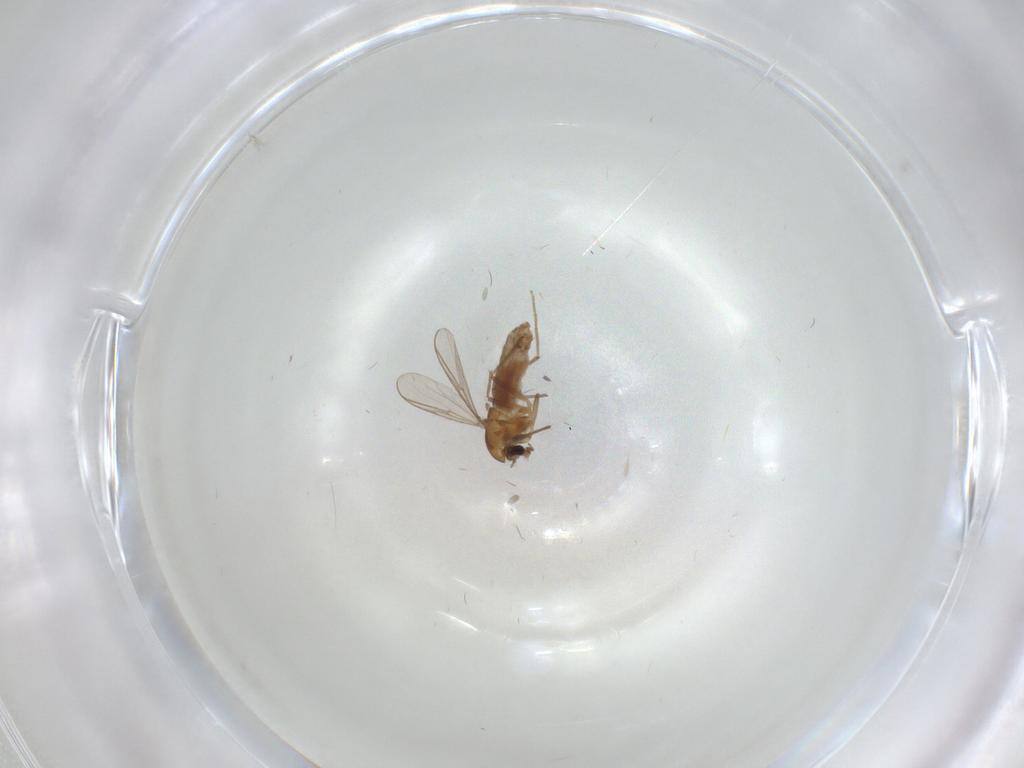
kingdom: Animalia
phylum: Arthropoda
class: Insecta
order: Diptera
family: Chironomidae
